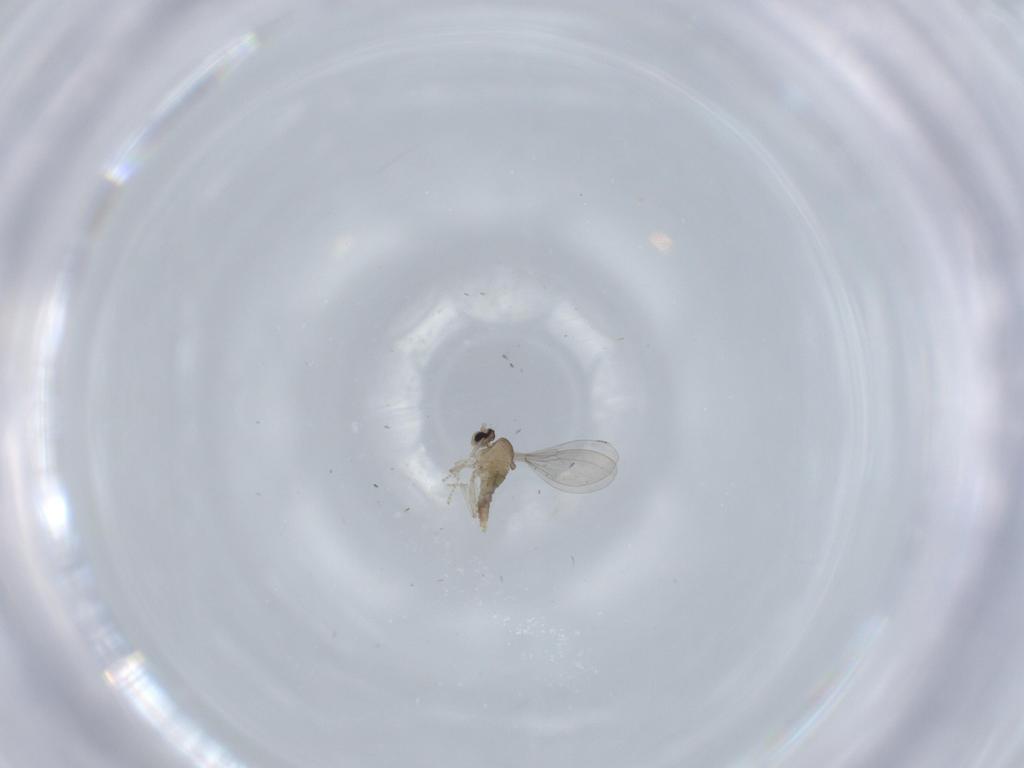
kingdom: Animalia
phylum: Arthropoda
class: Insecta
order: Diptera
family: Cecidomyiidae
